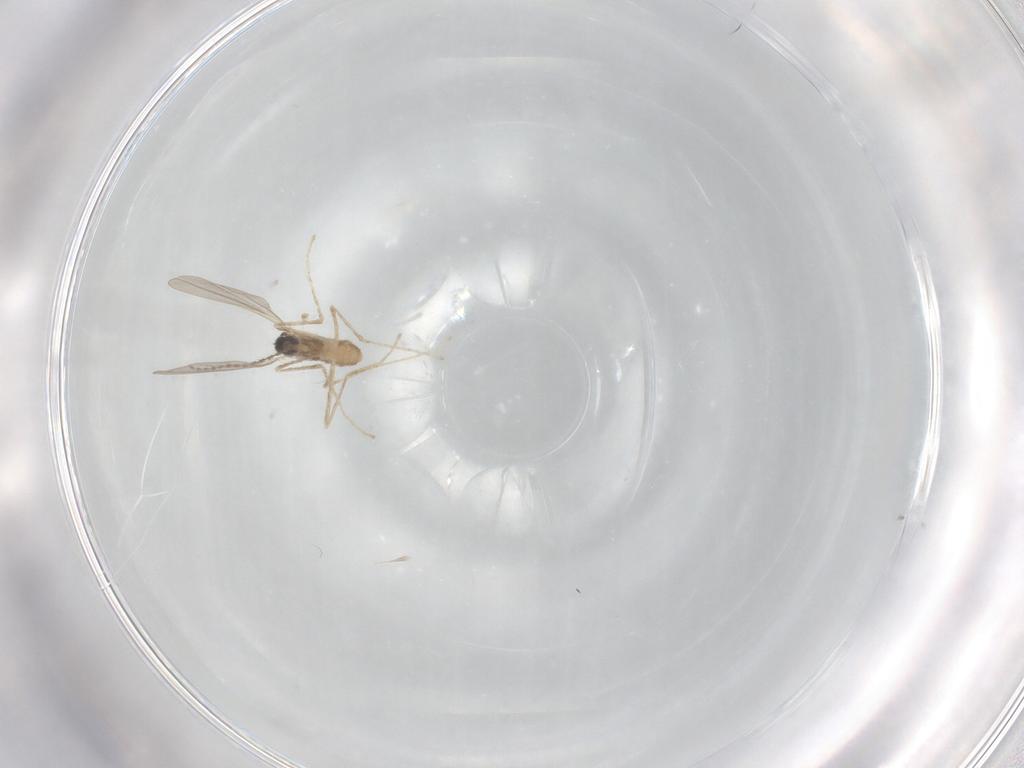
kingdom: Animalia
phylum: Arthropoda
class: Insecta
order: Diptera
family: Cecidomyiidae
